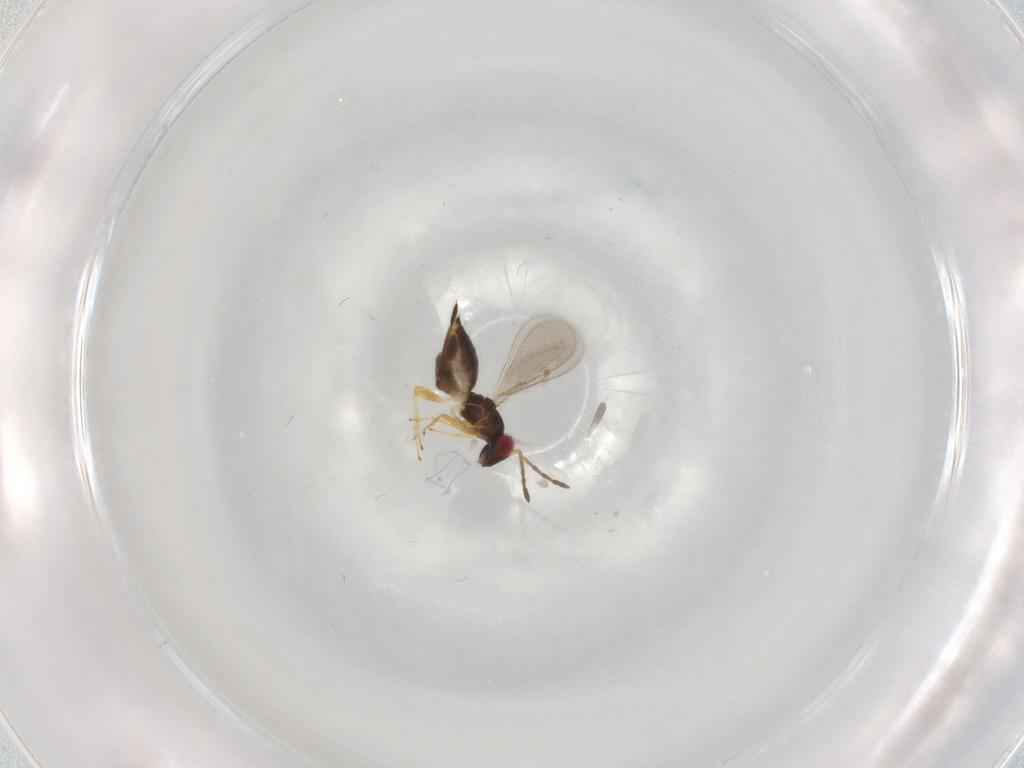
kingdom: Animalia
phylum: Arthropoda
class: Insecta
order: Hymenoptera
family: Eulophidae
